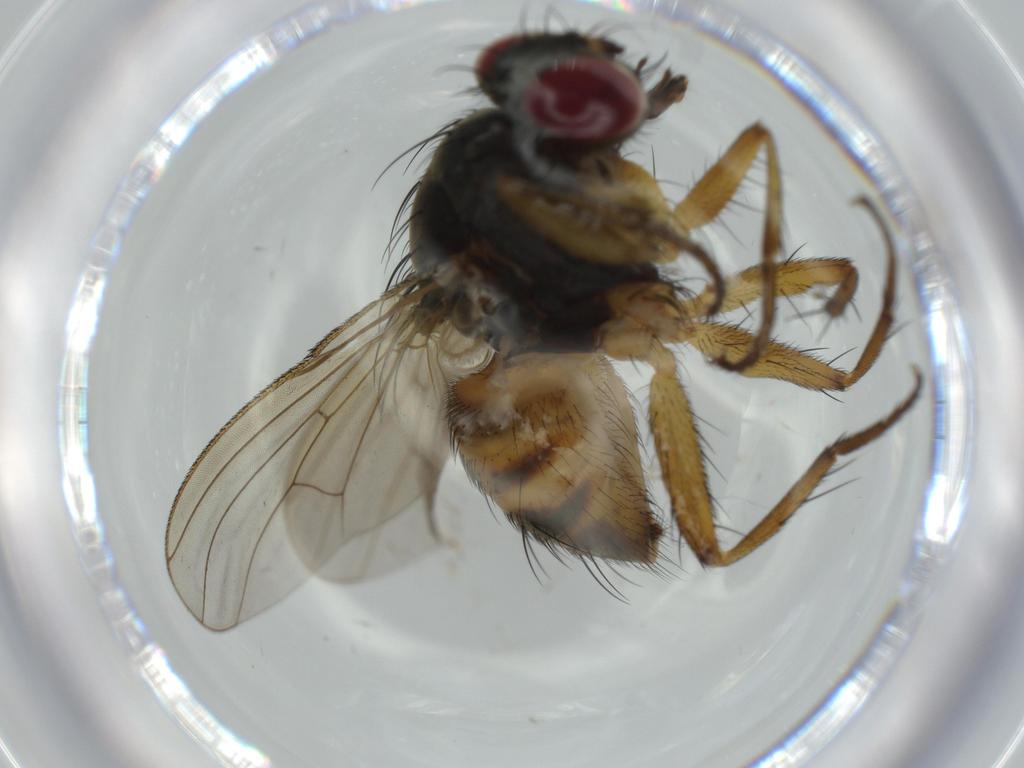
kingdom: Animalia
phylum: Arthropoda
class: Insecta
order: Diptera
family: Muscidae
